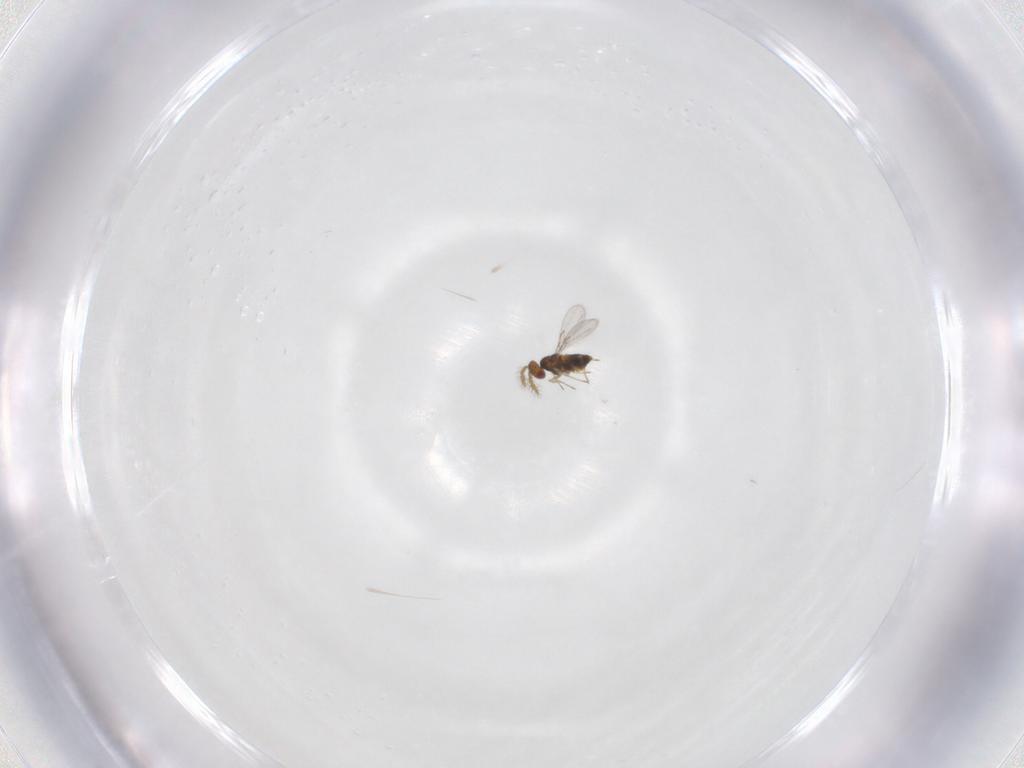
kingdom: Animalia
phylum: Arthropoda
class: Insecta
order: Hymenoptera
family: Trichogrammatidae
